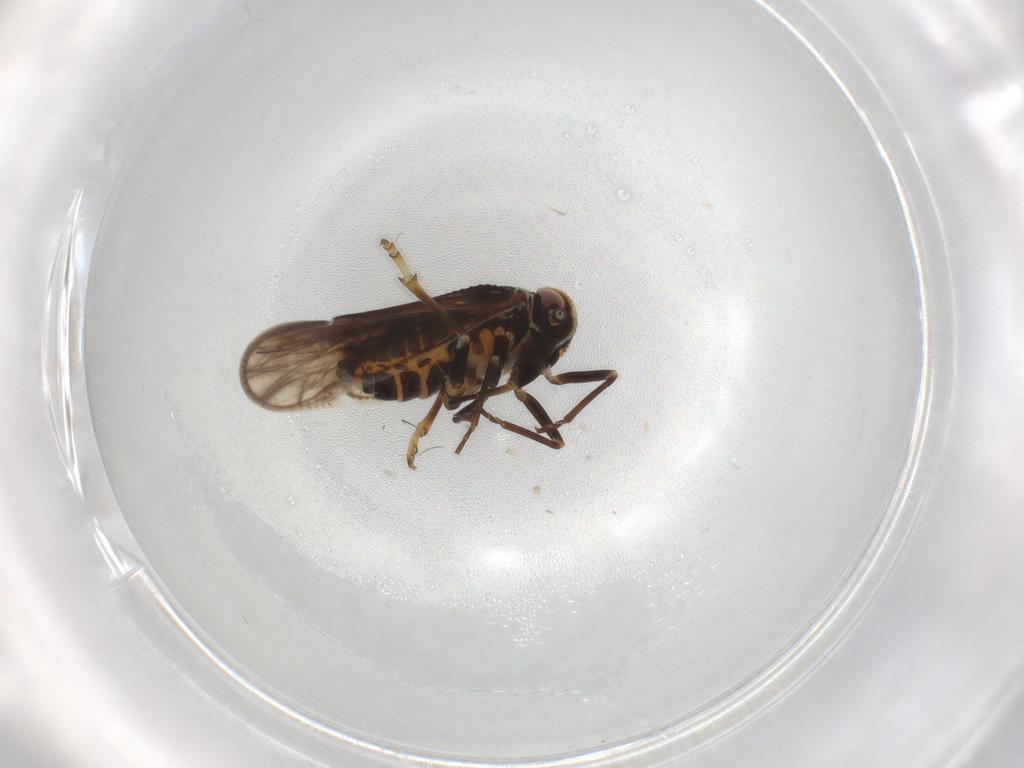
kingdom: Animalia
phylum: Arthropoda
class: Insecta
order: Hemiptera
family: Meenoplidae
